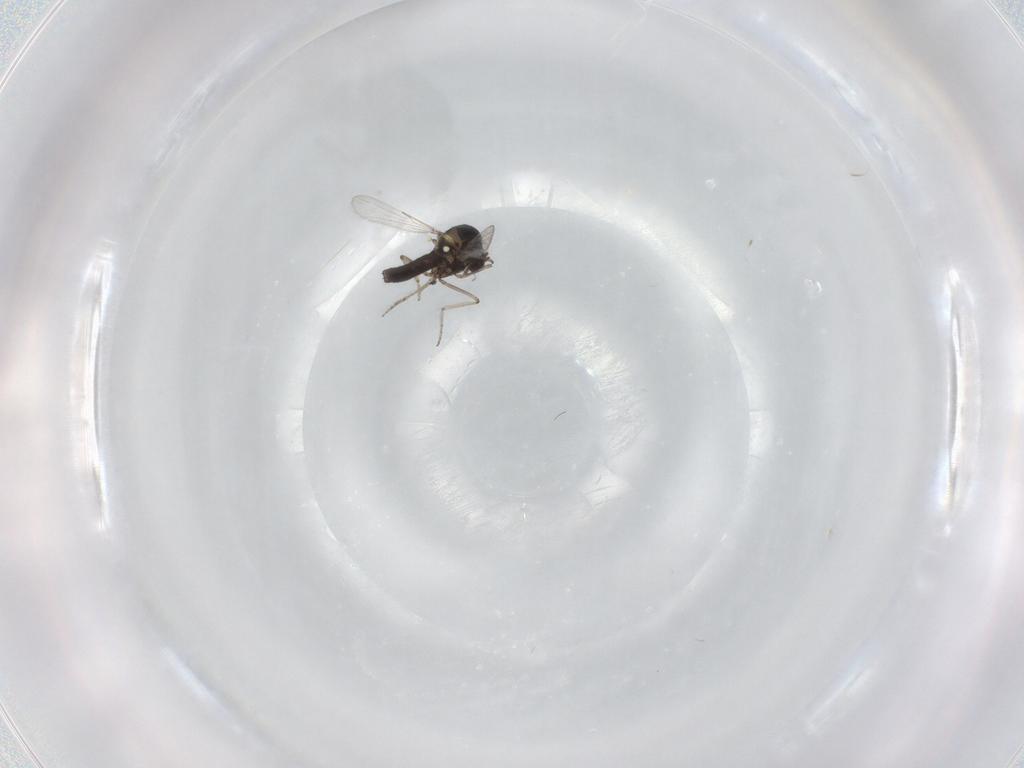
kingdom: Animalia
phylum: Arthropoda
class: Insecta
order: Diptera
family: Ceratopogonidae
